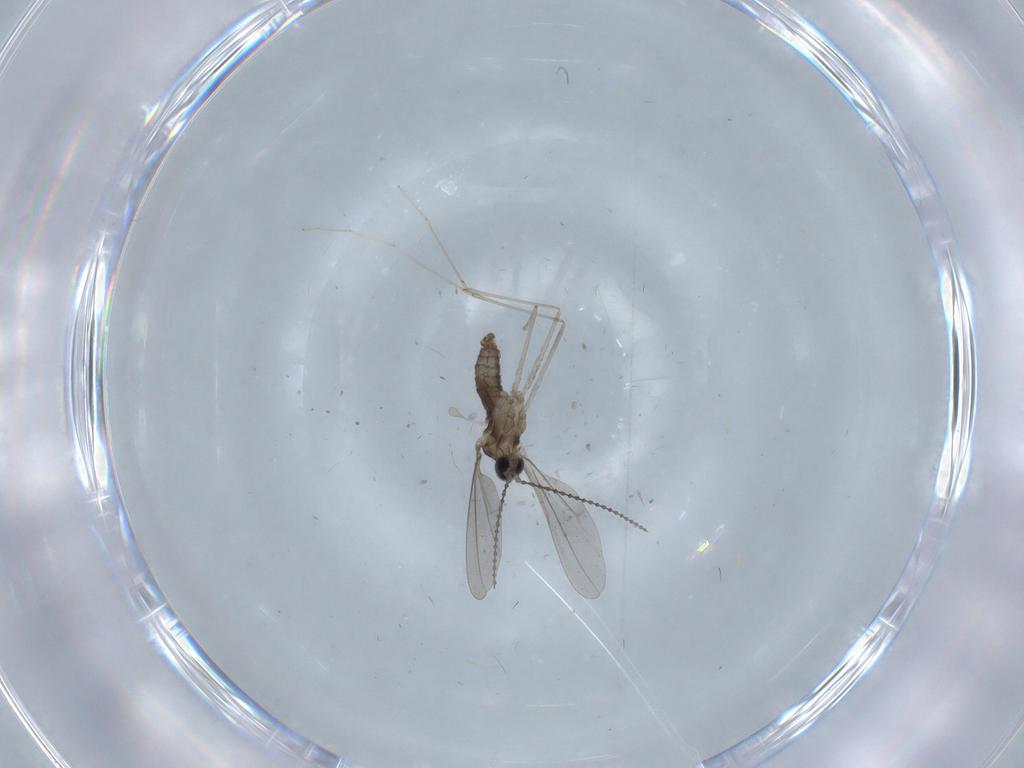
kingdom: Animalia
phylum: Arthropoda
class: Insecta
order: Diptera
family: Cecidomyiidae
